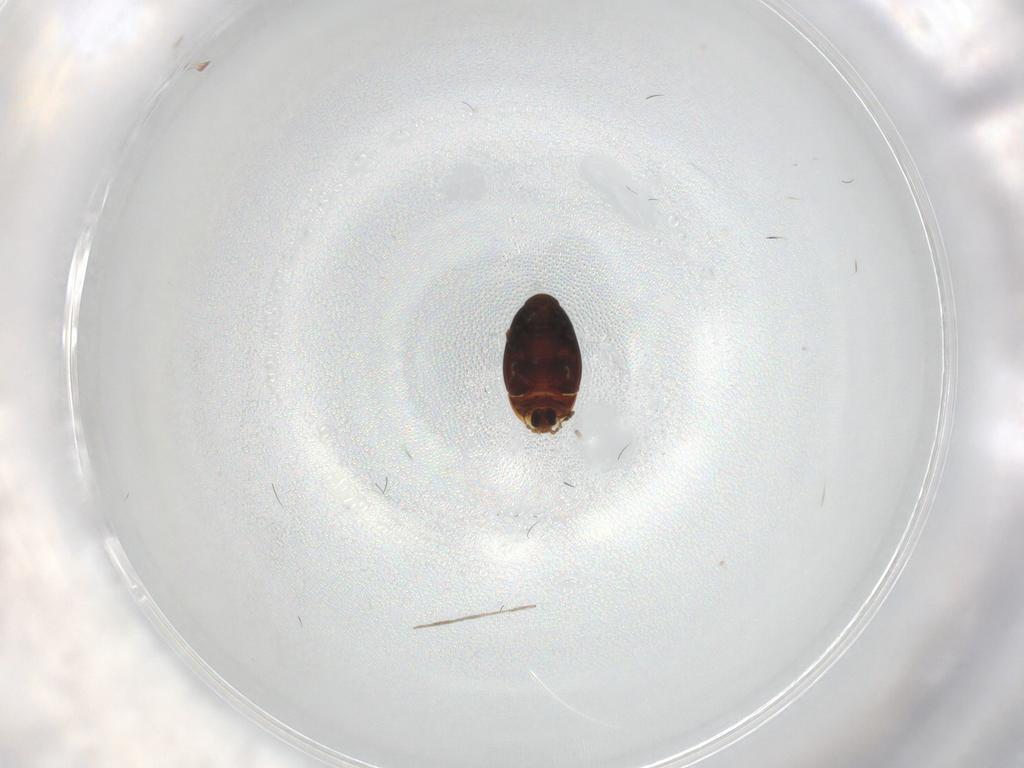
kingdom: Animalia
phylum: Arthropoda
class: Insecta
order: Coleoptera
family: Corylophidae
